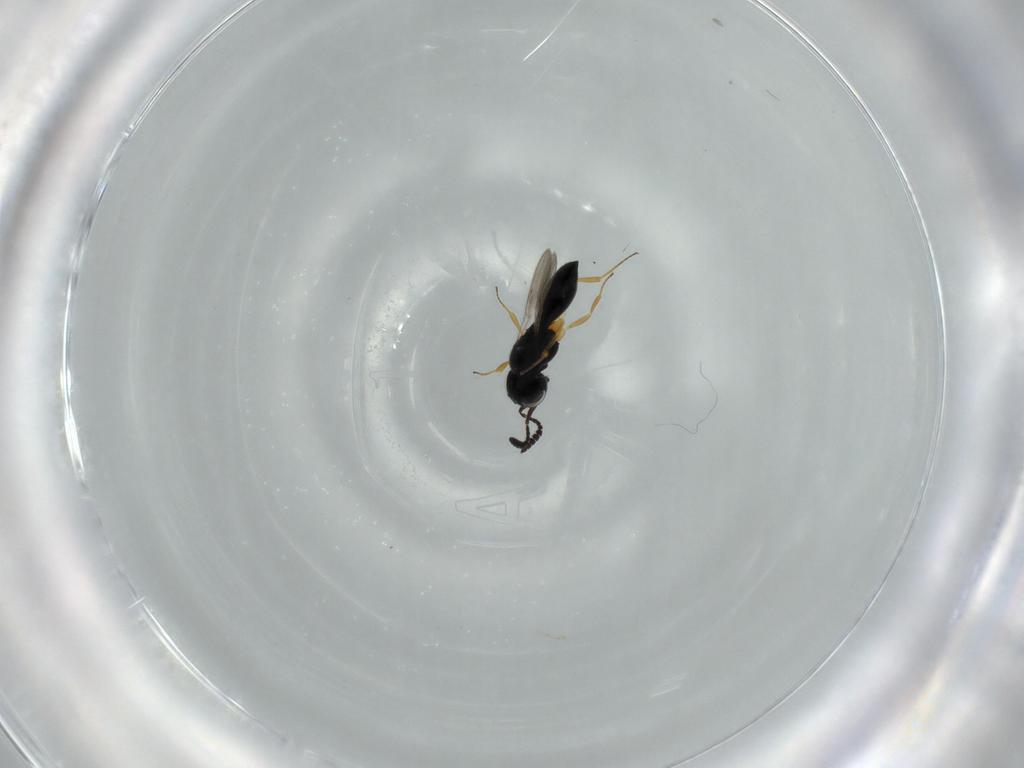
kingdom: Animalia
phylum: Arthropoda
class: Insecta
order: Hymenoptera
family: Scelionidae
